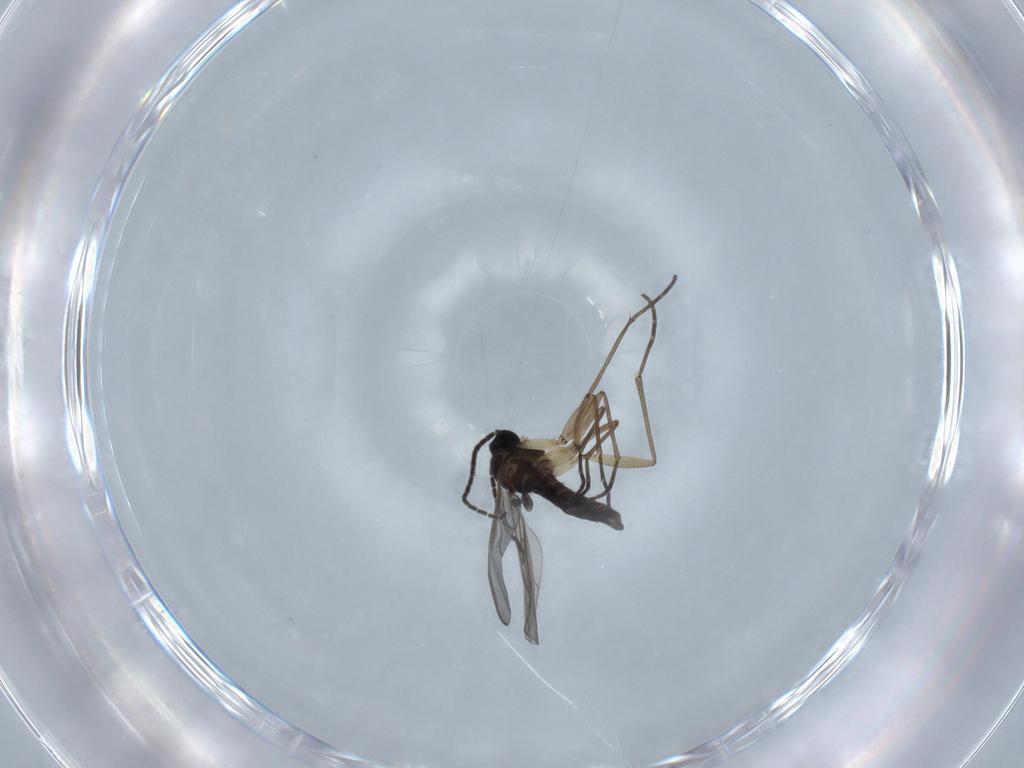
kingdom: Animalia
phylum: Arthropoda
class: Insecta
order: Diptera
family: Sciaridae
